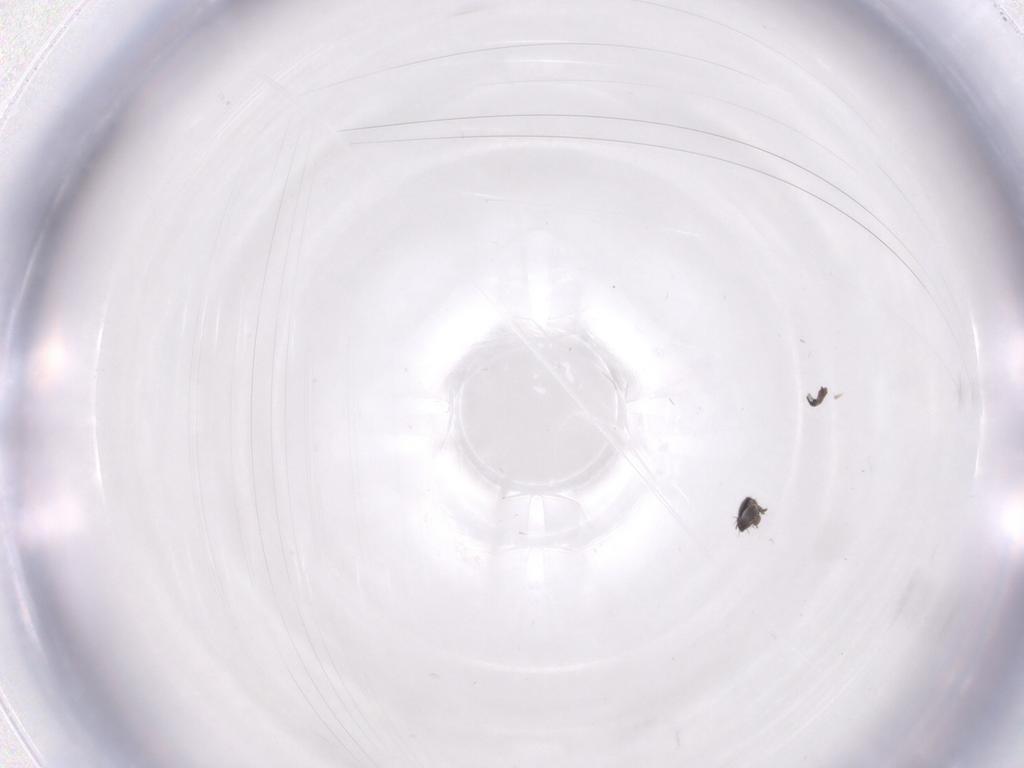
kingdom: Animalia
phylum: Arthropoda
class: Insecta
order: Diptera
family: Phoridae
